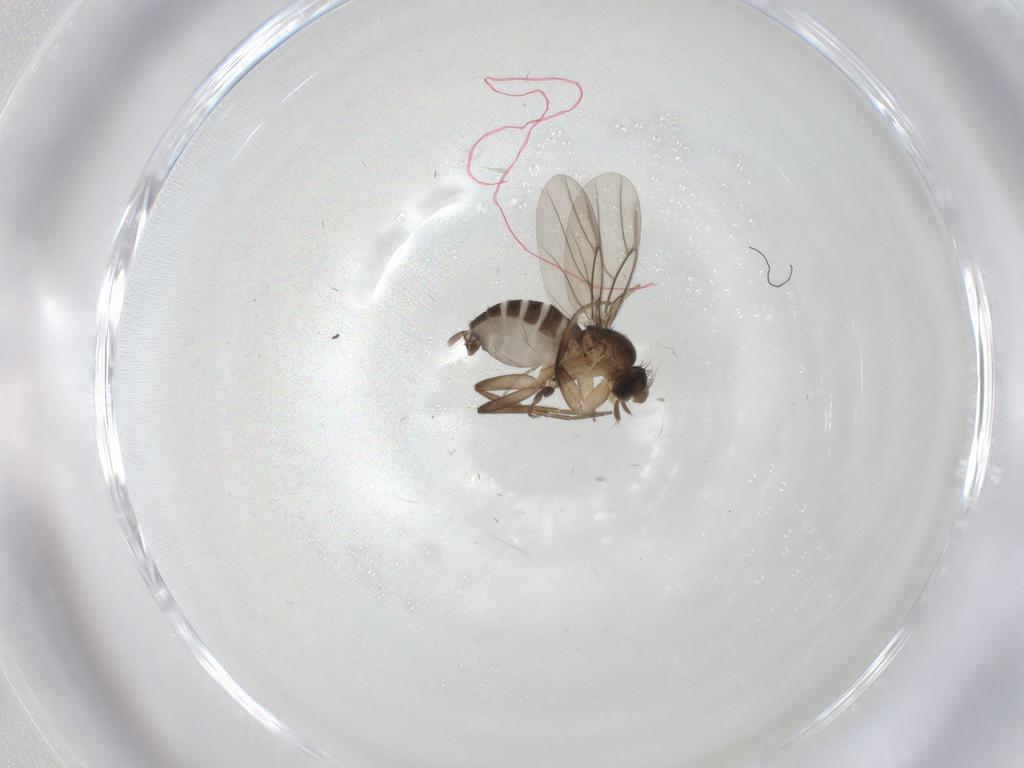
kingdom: Animalia
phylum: Arthropoda
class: Insecta
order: Diptera
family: Phoridae
